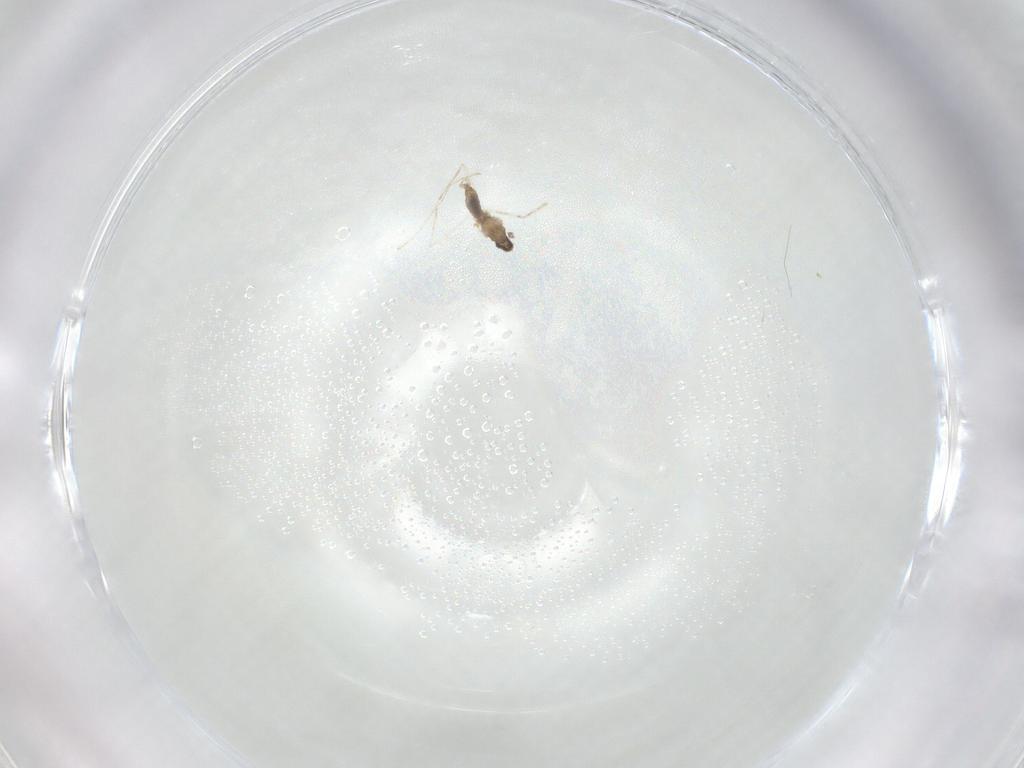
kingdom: Animalia
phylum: Arthropoda
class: Insecta
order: Diptera
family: Cecidomyiidae
